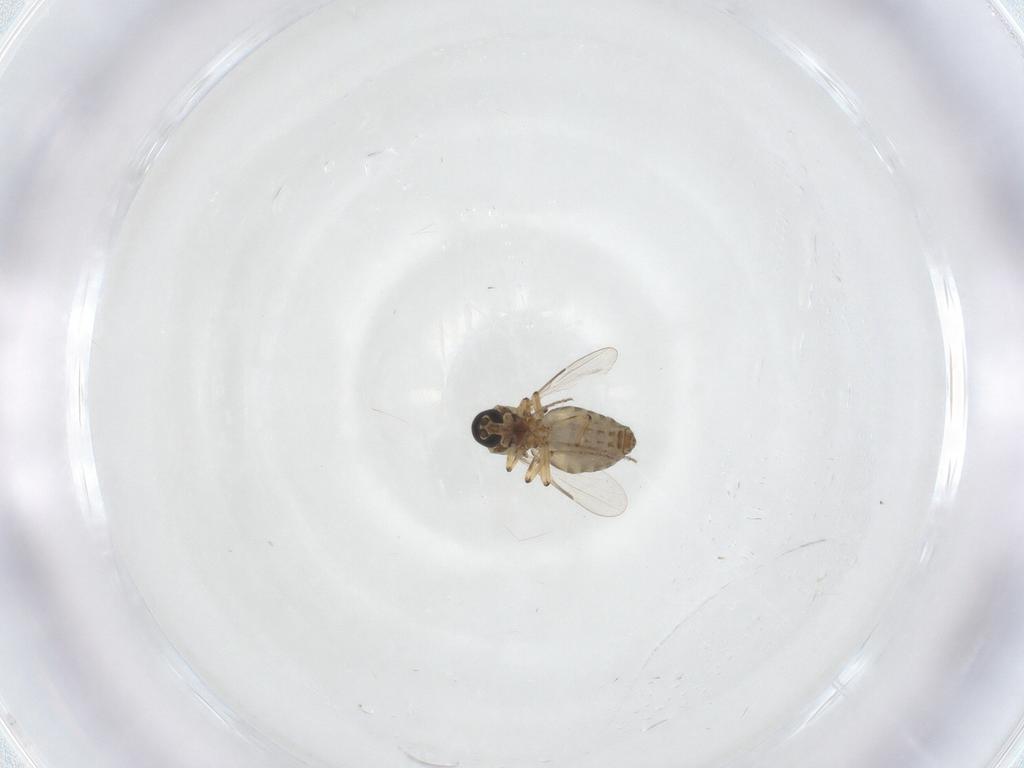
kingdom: Animalia
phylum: Arthropoda
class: Insecta
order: Diptera
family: Ceratopogonidae
